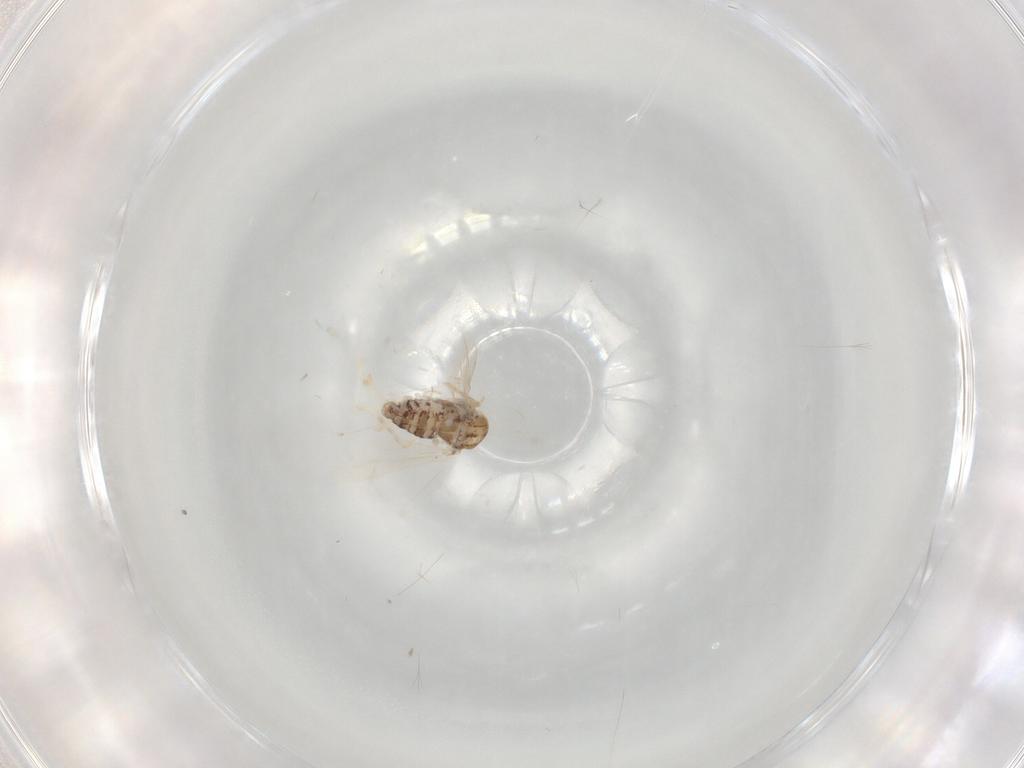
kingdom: Animalia
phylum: Arthropoda
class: Insecta
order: Diptera
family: Chironomidae
